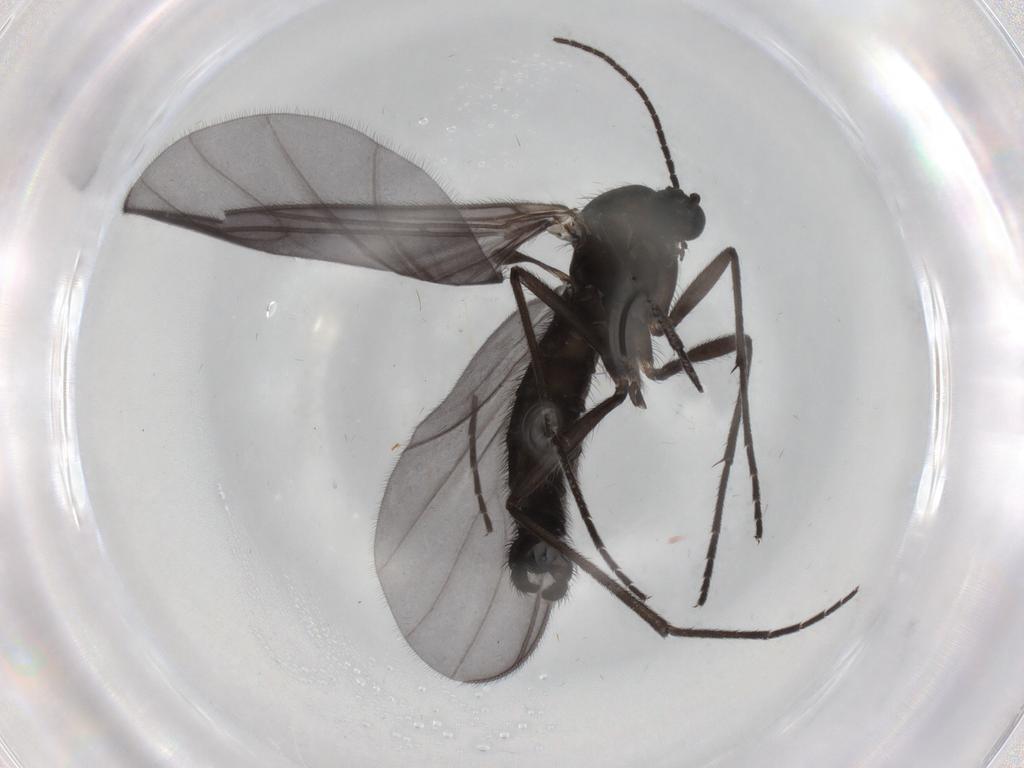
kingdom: Animalia
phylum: Arthropoda
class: Insecta
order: Diptera
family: Sciaridae
